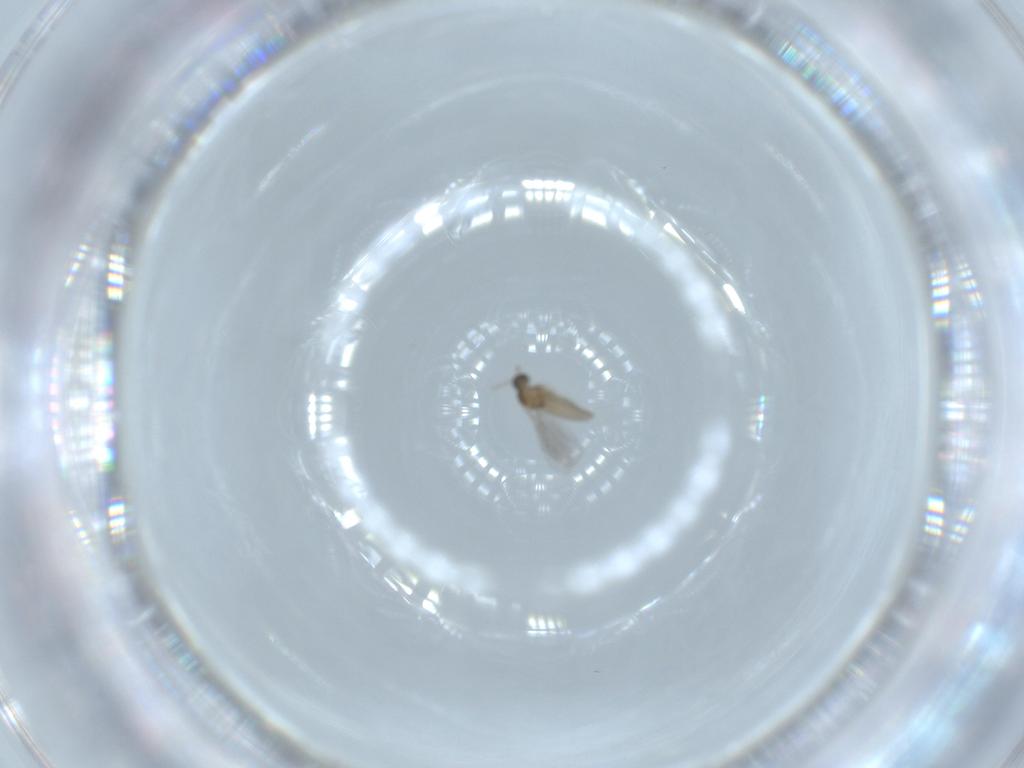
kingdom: Animalia
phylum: Arthropoda
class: Insecta
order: Diptera
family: Cecidomyiidae
